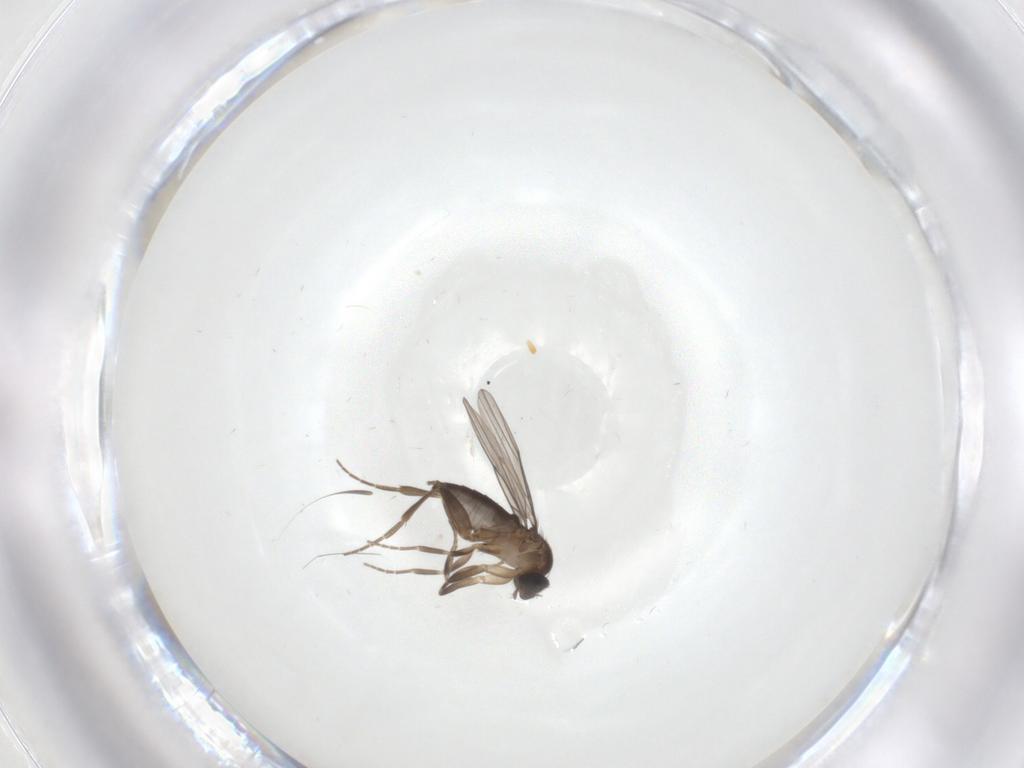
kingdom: Animalia
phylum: Arthropoda
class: Insecta
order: Diptera
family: Phoridae
